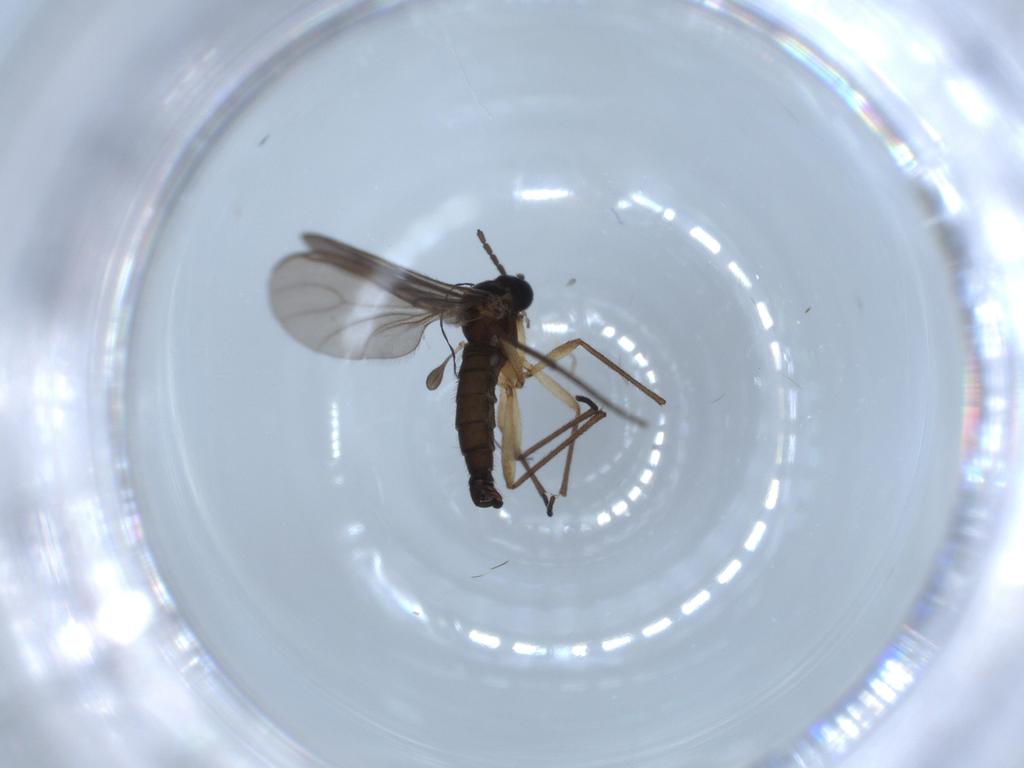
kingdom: Animalia
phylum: Arthropoda
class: Insecta
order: Diptera
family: Sciaridae
